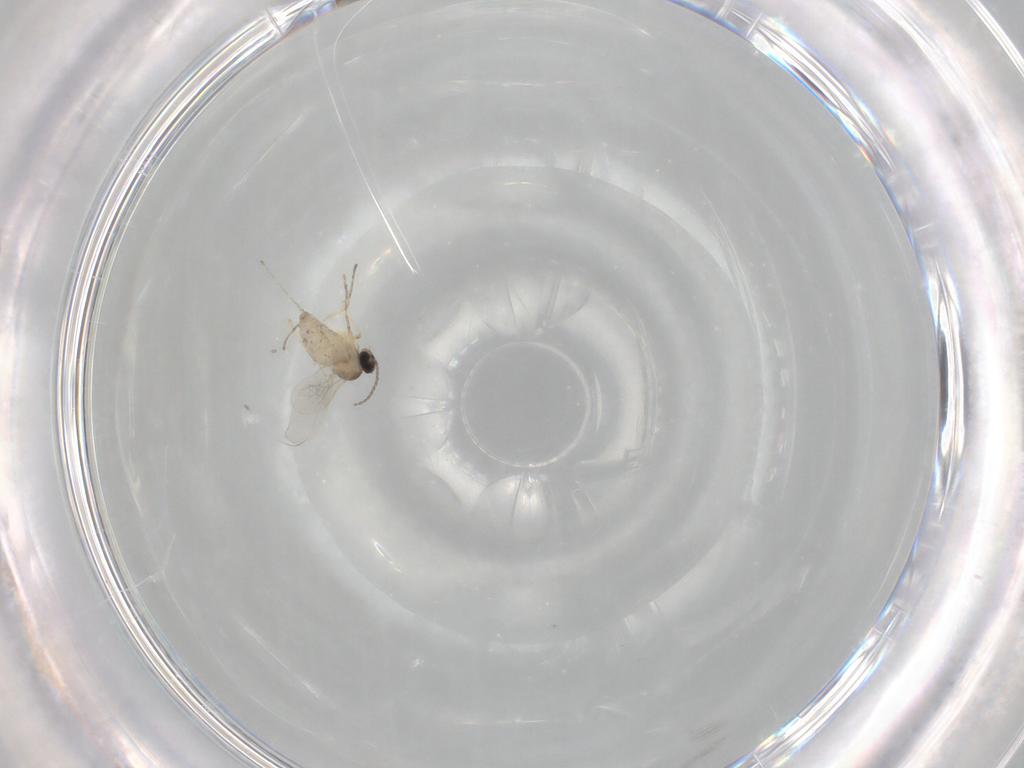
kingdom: Animalia
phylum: Arthropoda
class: Insecta
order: Diptera
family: Cecidomyiidae
